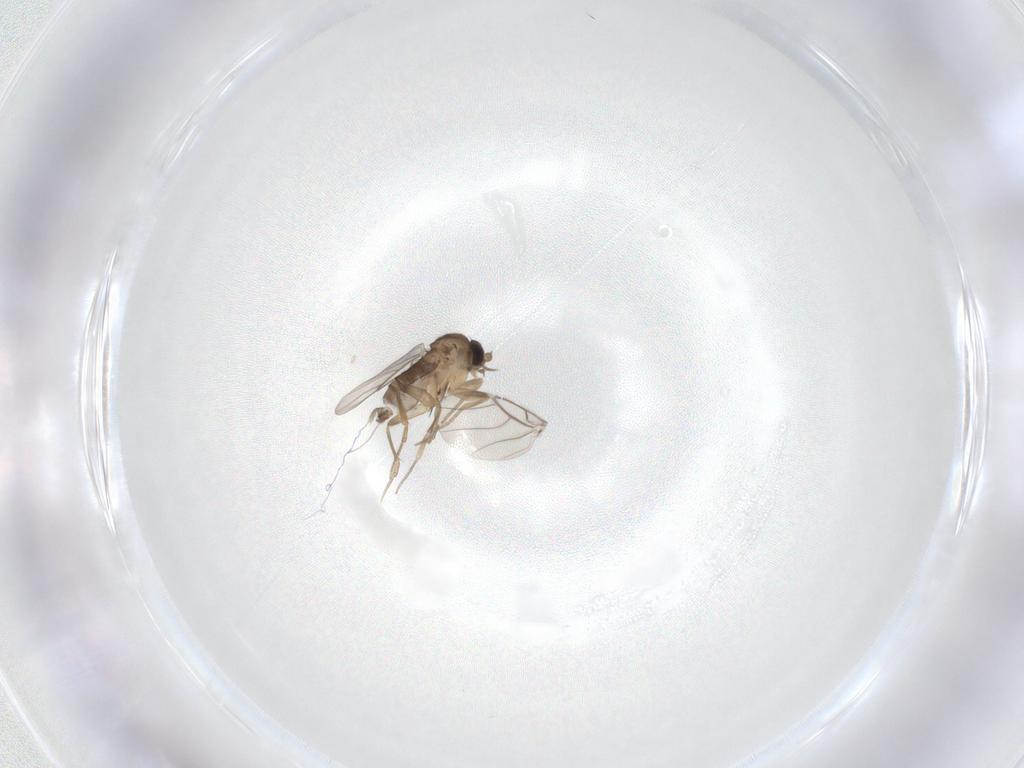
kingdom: Animalia
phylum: Arthropoda
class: Insecta
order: Diptera
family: Phoridae
